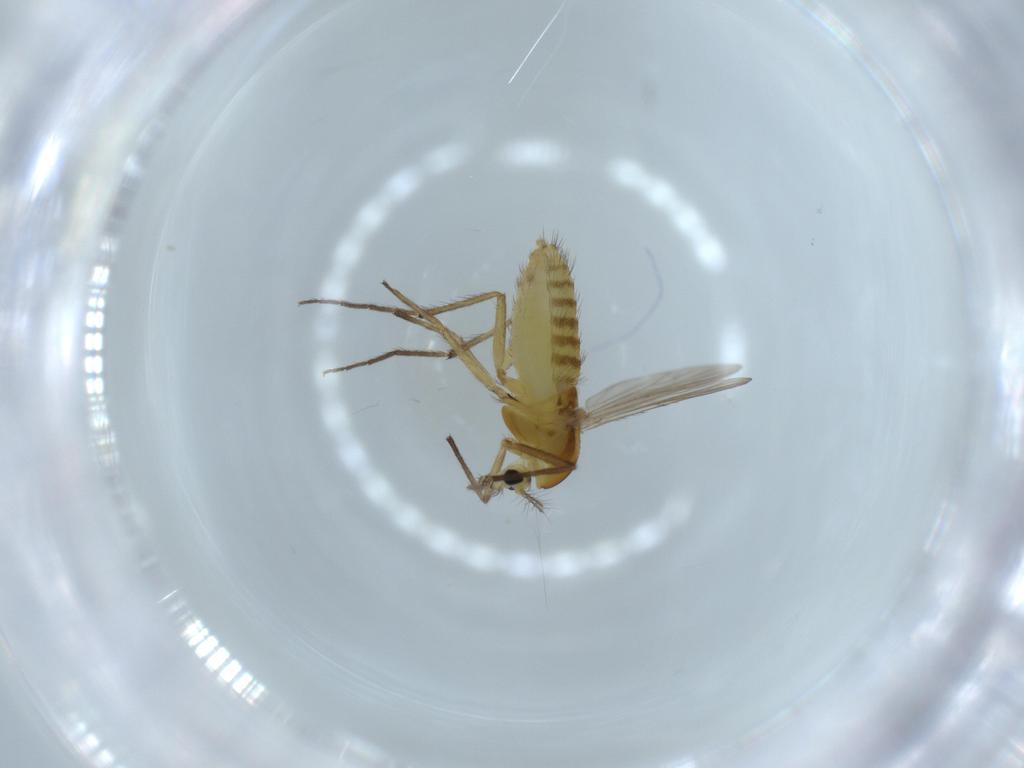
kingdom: Animalia
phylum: Arthropoda
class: Insecta
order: Diptera
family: Chironomidae
